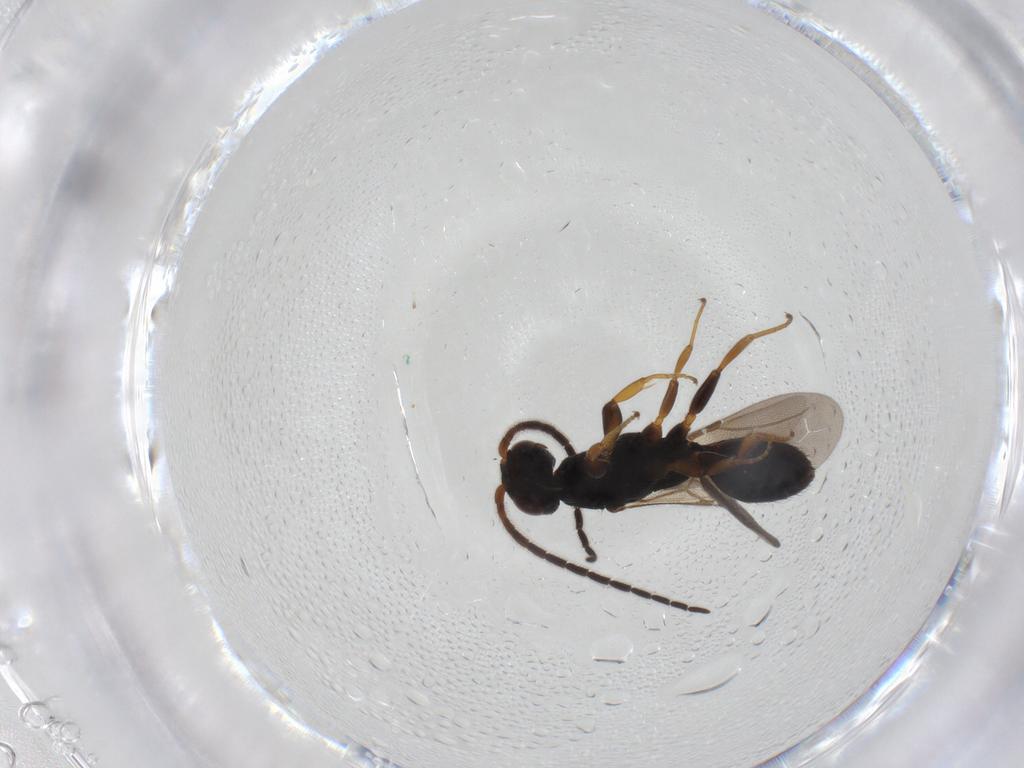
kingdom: Animalia
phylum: Arthropoda
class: Insecta
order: Hymenoptera
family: Bethylidae
